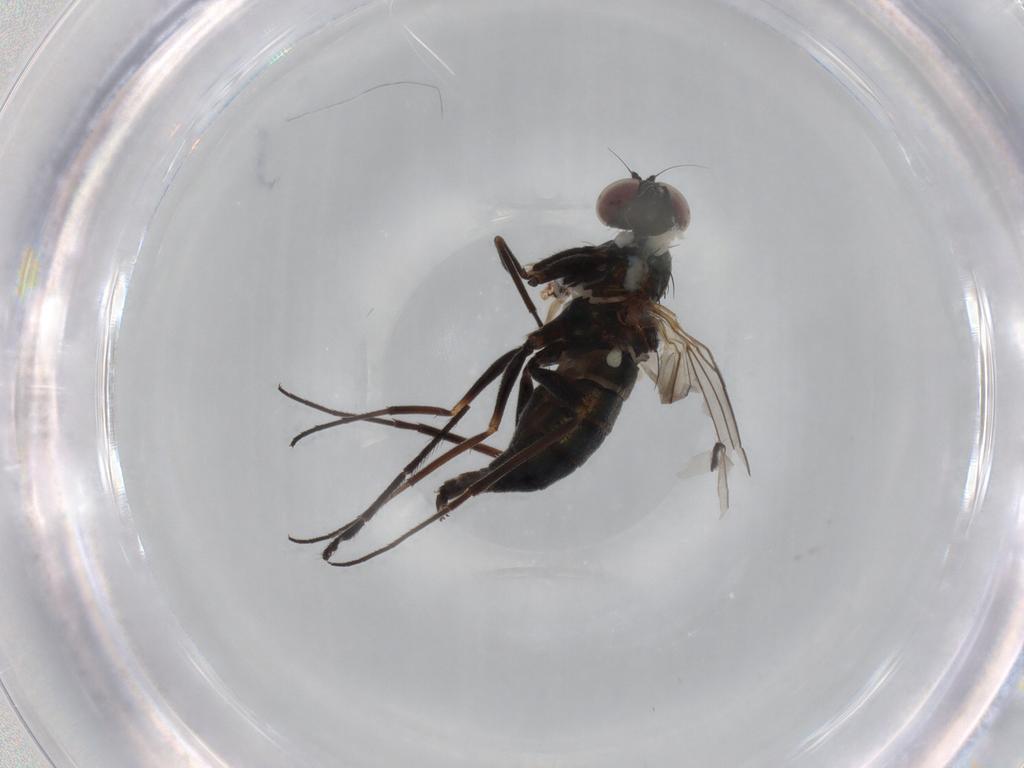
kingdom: Animalia
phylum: Arthropoda
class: Insecta
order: Diptera
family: Dolichopodidae
